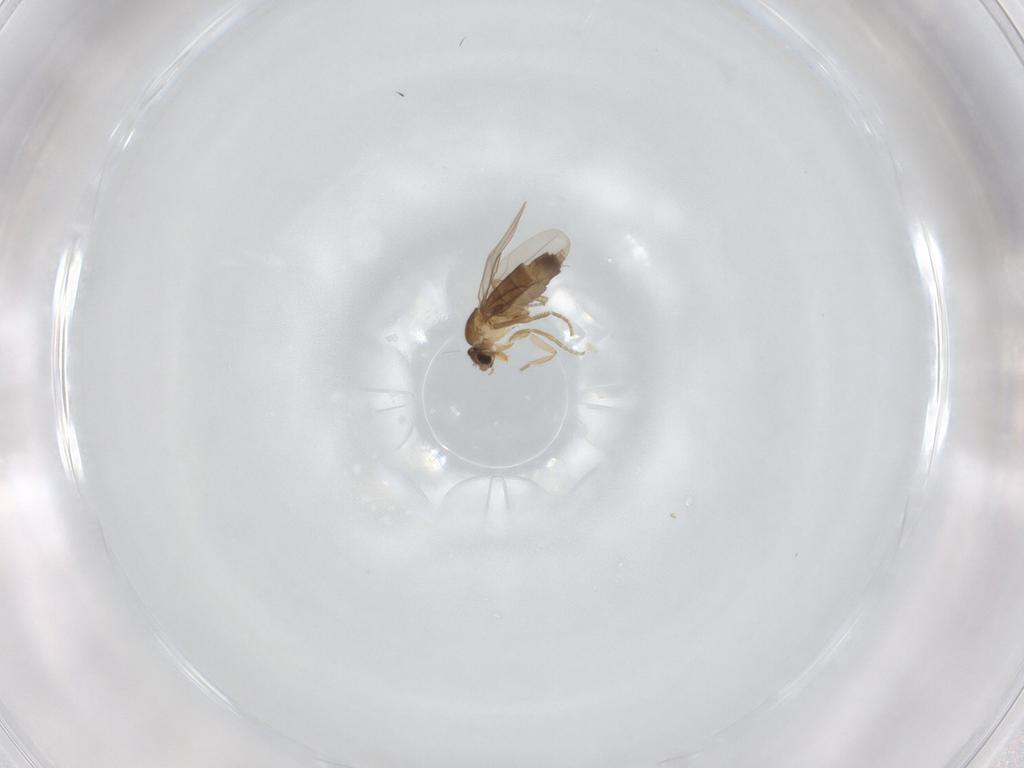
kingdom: Animalia
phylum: Arthropoda
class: Insecta
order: Diptera
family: Phoridae
